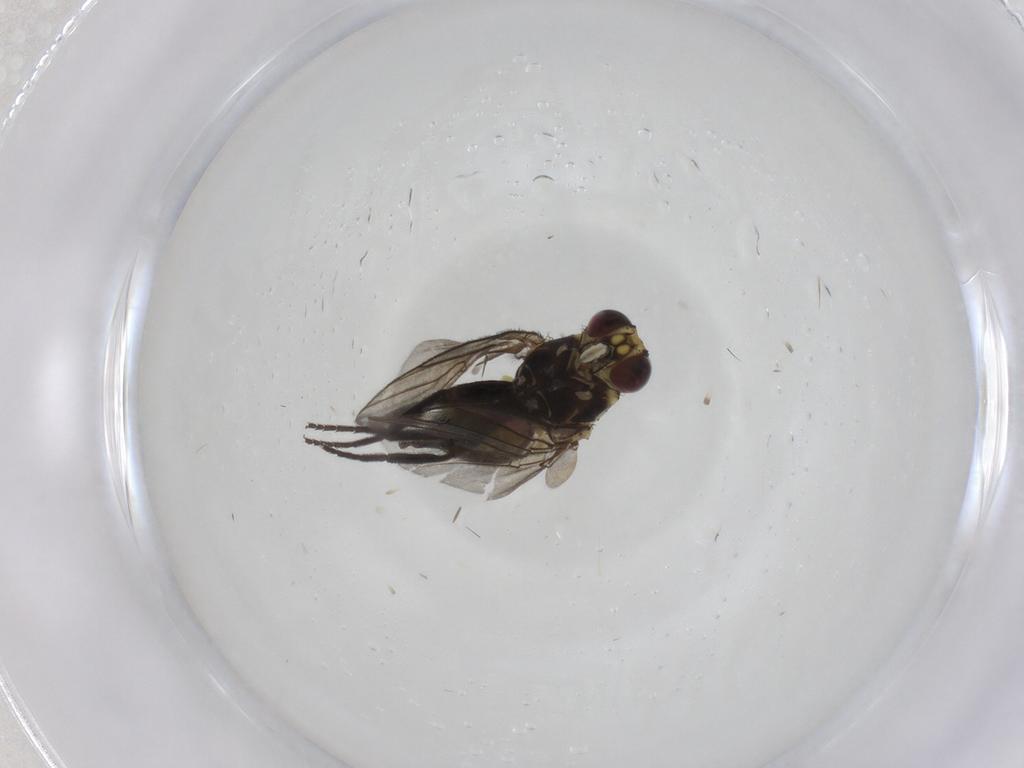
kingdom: Animalia
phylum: Arthropoda
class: Insecta
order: Diptera
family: Agromyzidae
